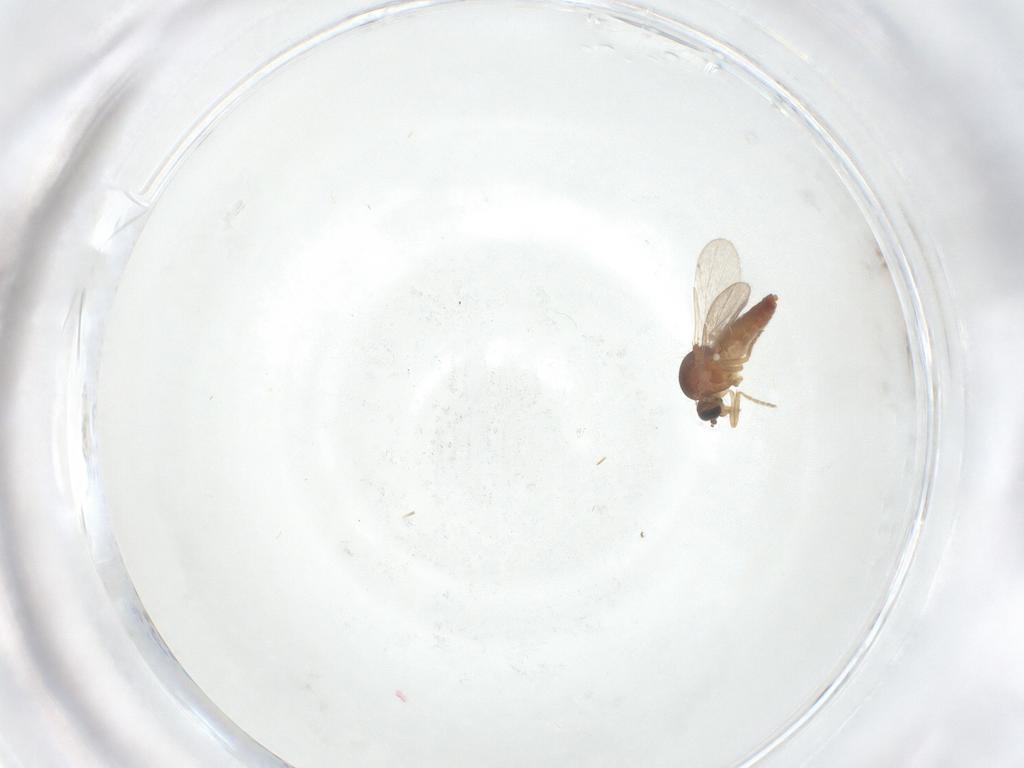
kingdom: Animalia
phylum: Arthropoda
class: Insecta
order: Diptera
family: Ceratopogonidae
